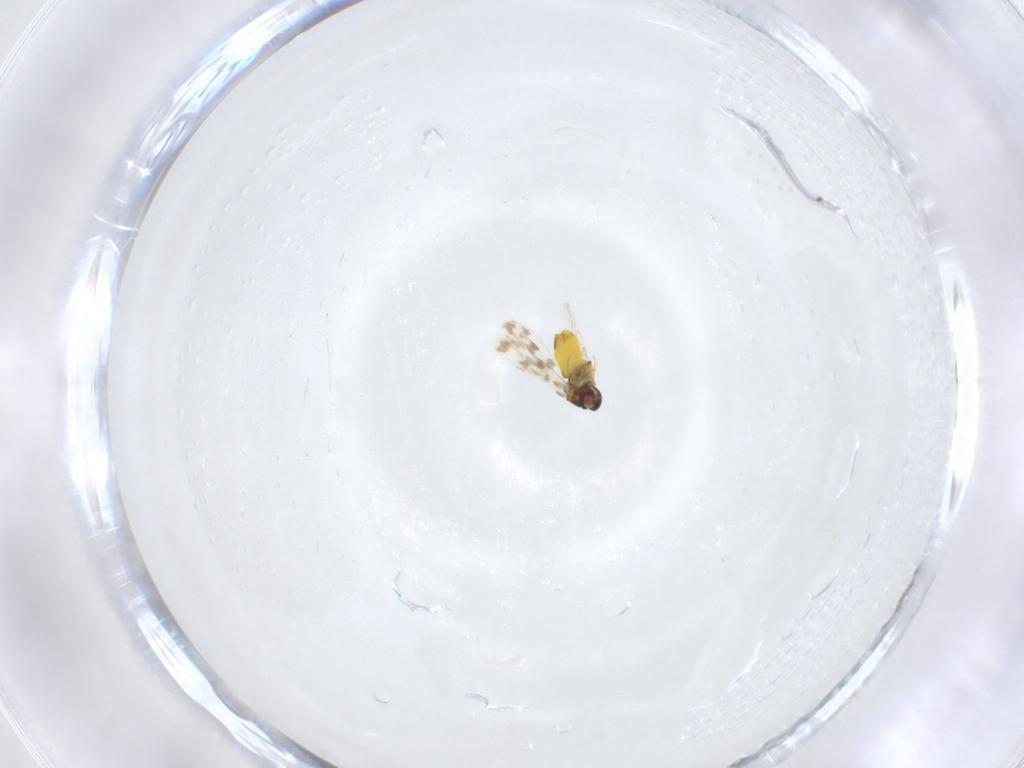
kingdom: Animalia
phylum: Arthropoda
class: Insecta
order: Hemiptera
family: Aleyrodidae
